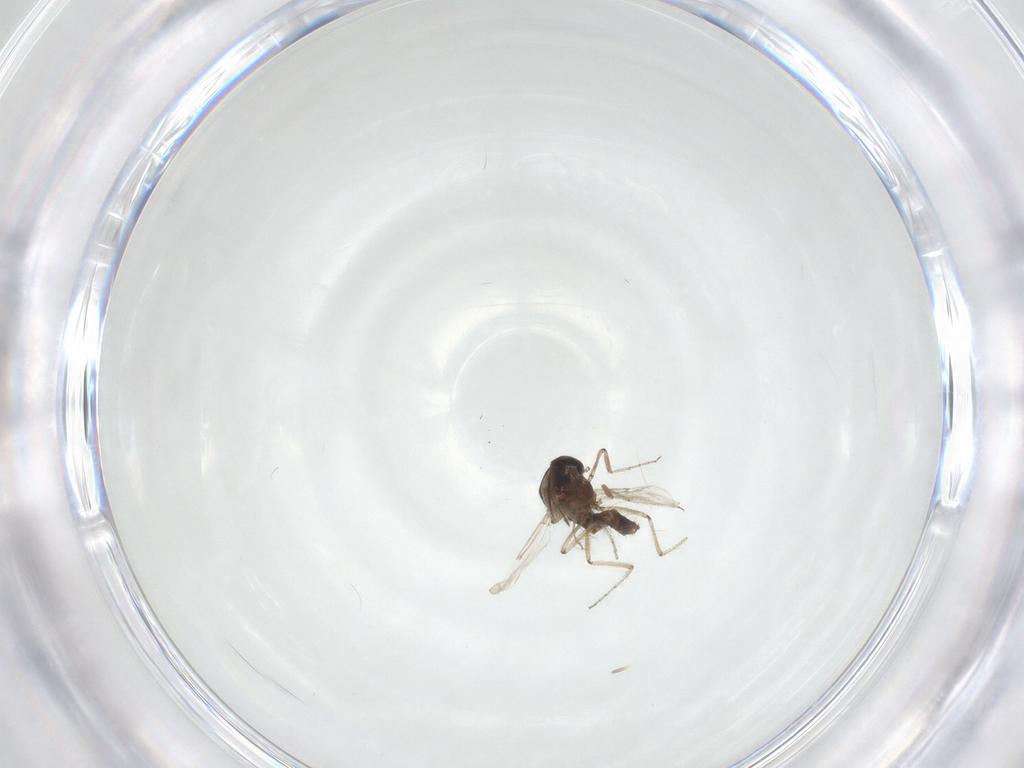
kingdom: Animalia
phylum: Arthropoda
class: Insecta
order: Diptera
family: Ceratopogonidae
